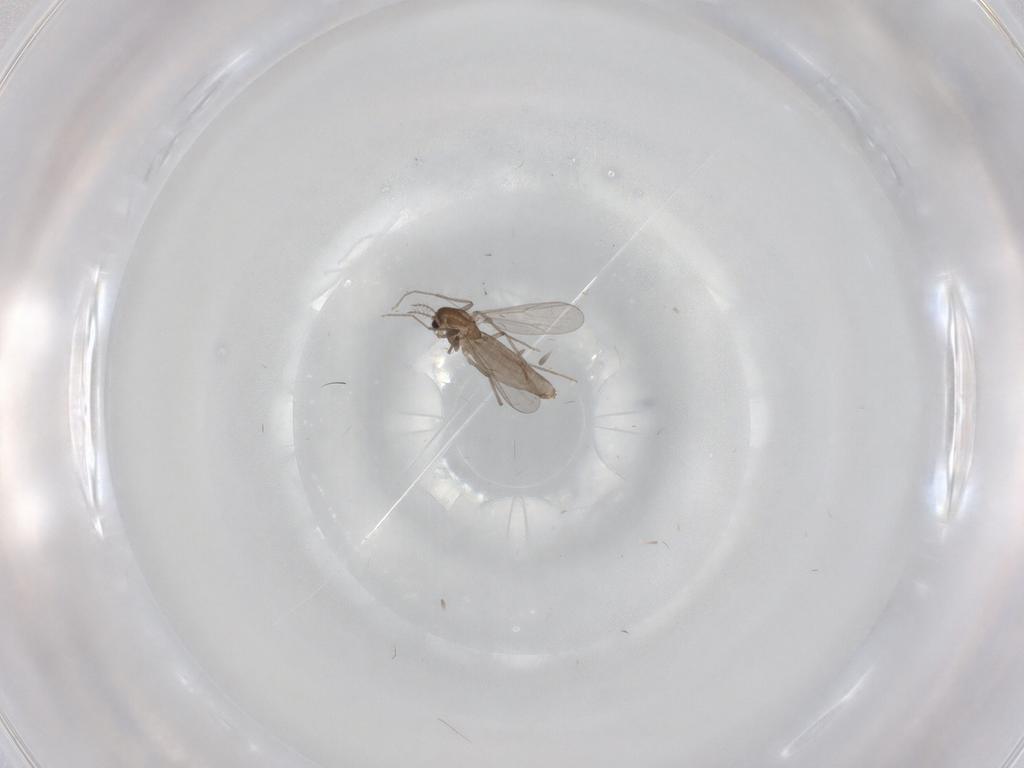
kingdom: Animalia
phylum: Arthropoda
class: Insecta
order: Diptera
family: Chironomidae
